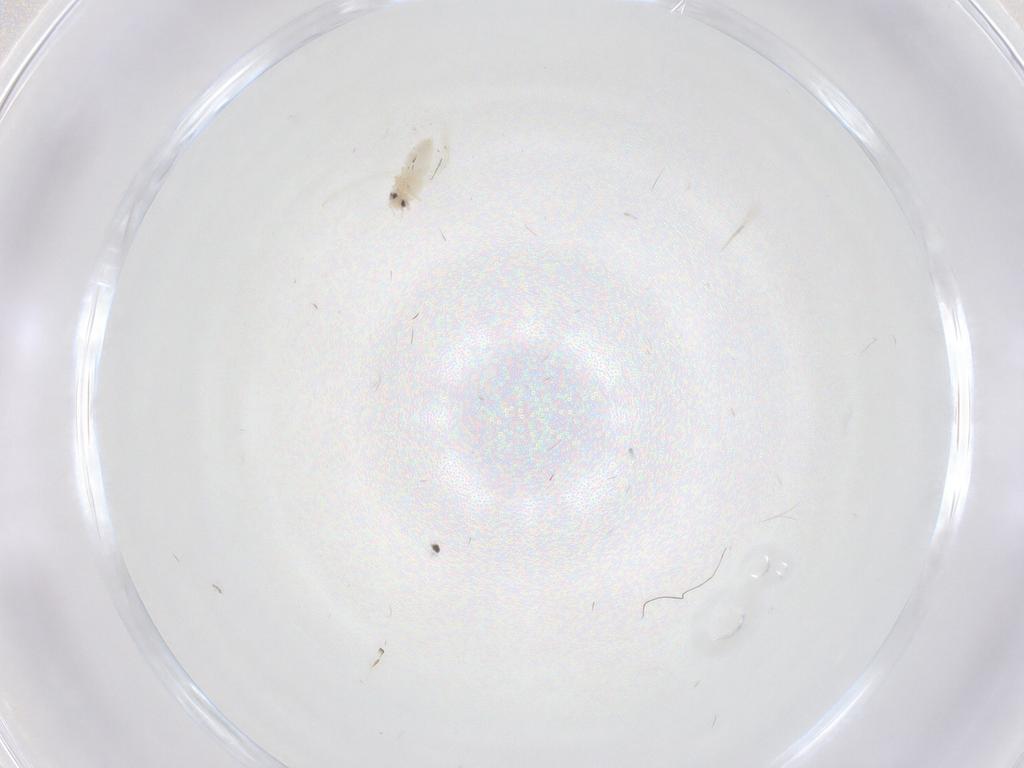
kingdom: Animalia
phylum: Arthropoda
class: Insecta
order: Hemiptera
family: Aleyrodidae
